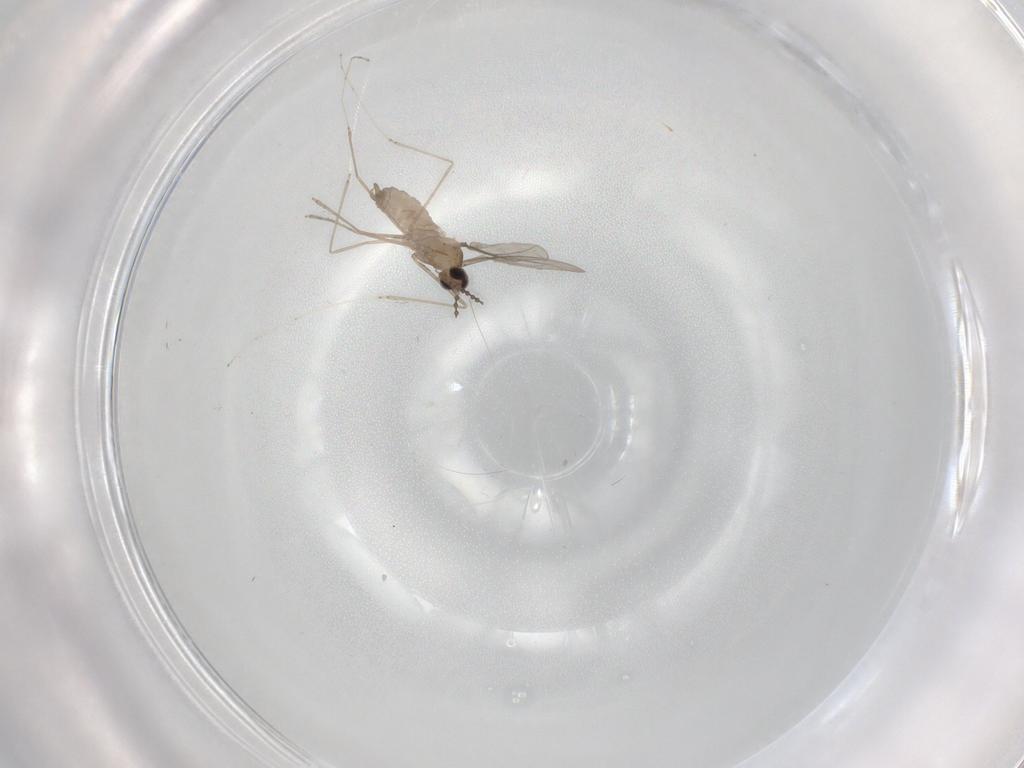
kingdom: Animalia
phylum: Arthropoda
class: Insecta
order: Diptera
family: Cecidomyiidae
